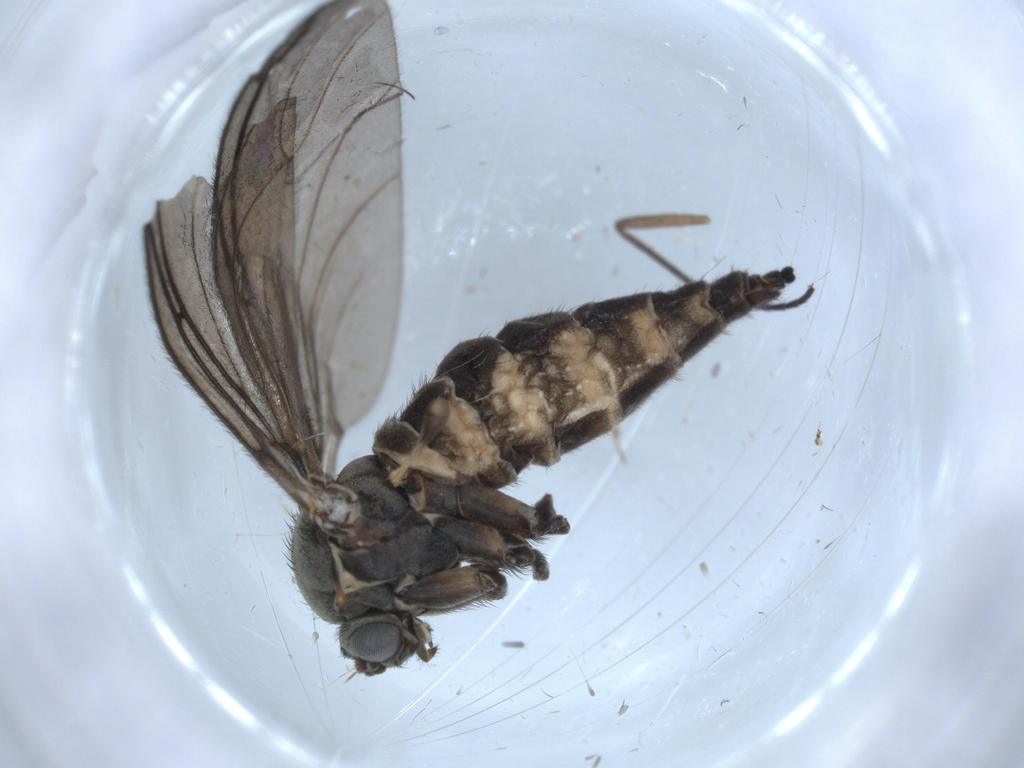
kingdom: Animalia
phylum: Arthropoda
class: Insecta
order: Diptera
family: Sciaridae
